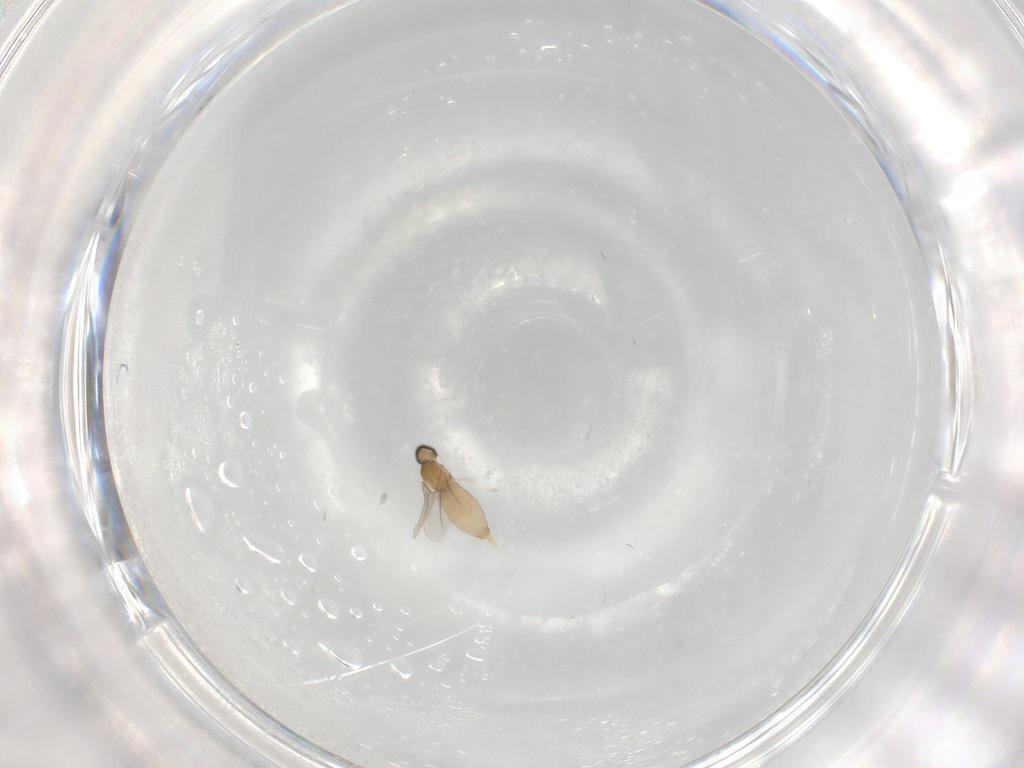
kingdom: Animalia
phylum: Arthropoda
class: Insecta
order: Diptera
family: Cecidomyiidae
